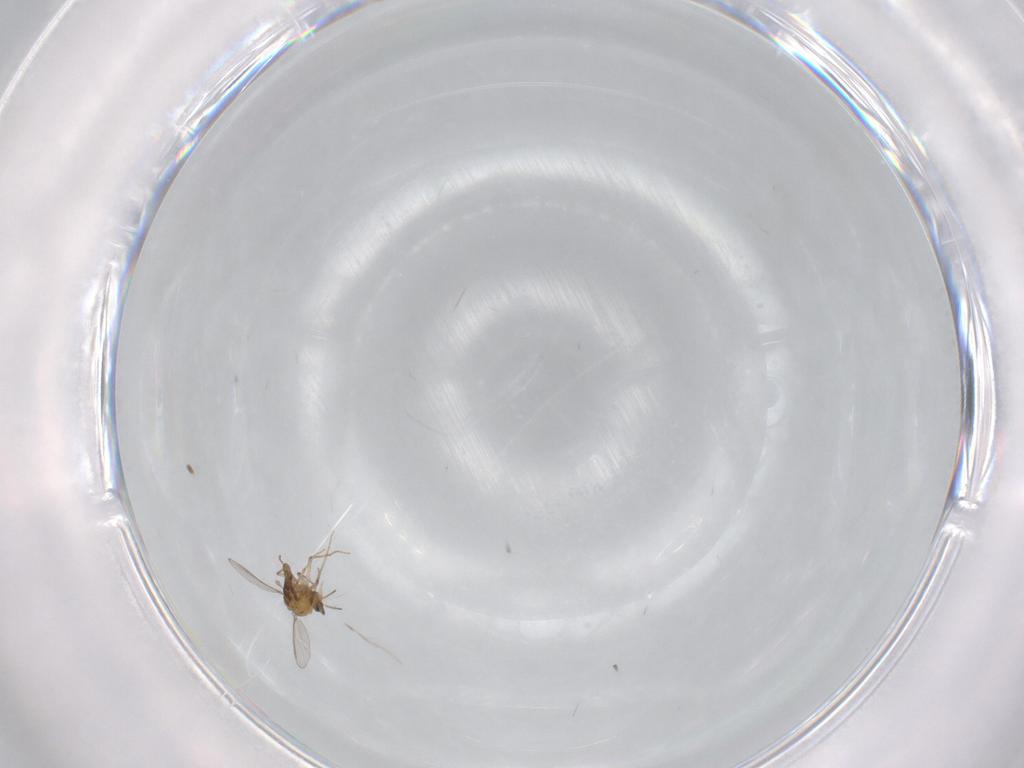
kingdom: Animalia
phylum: Arthropoda
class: Insecta
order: Diptera
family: Chironomidae
